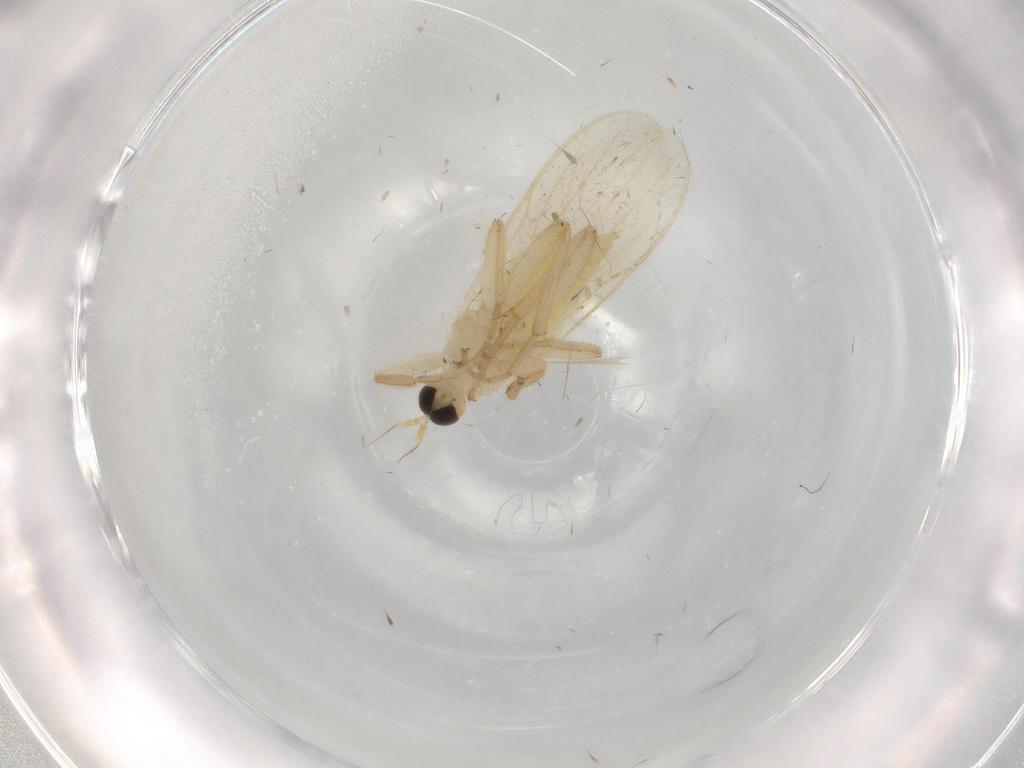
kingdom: Animalia
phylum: Arthropoda
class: Insecta
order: Diptera
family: Hybotidae
